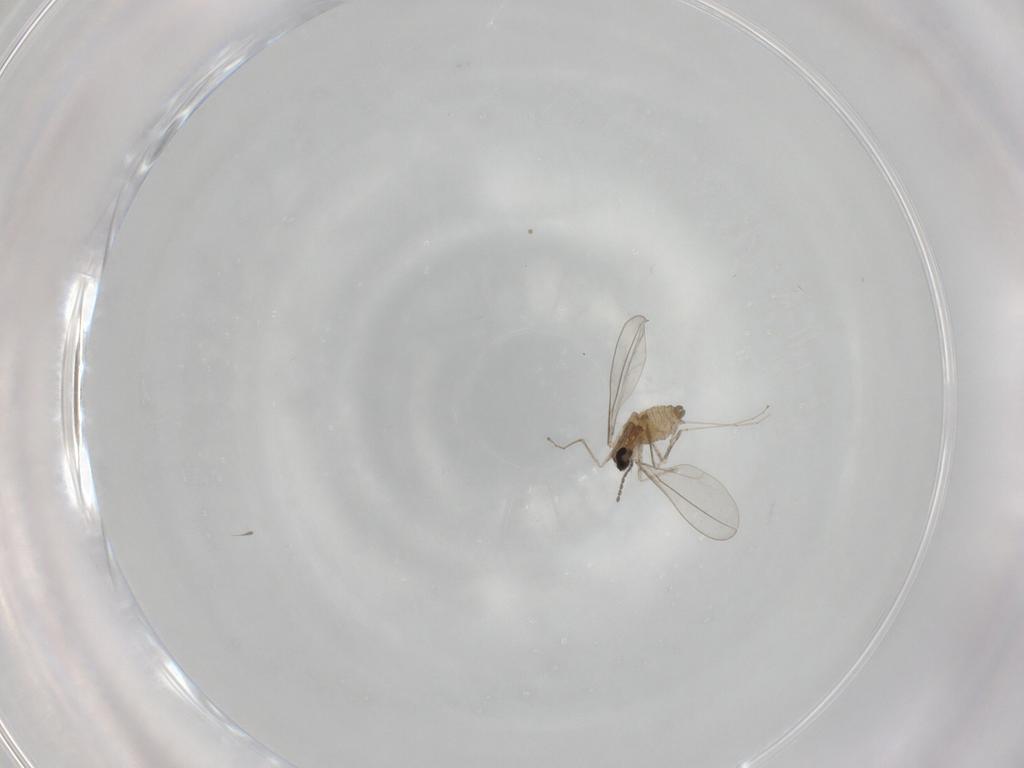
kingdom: Animalia
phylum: Arthropoda
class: Insecta
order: Diptera
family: Cecidomyiidae
